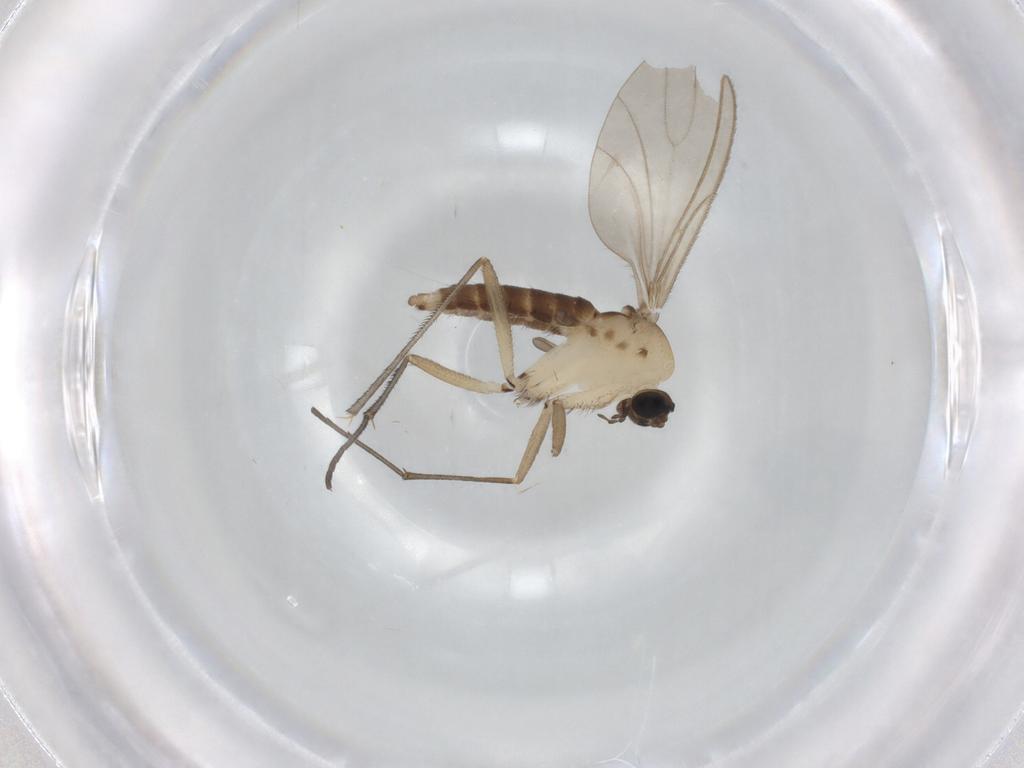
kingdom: Animalia
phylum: Arthropoda
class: Insecta
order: Diptera
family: Sciaridae
